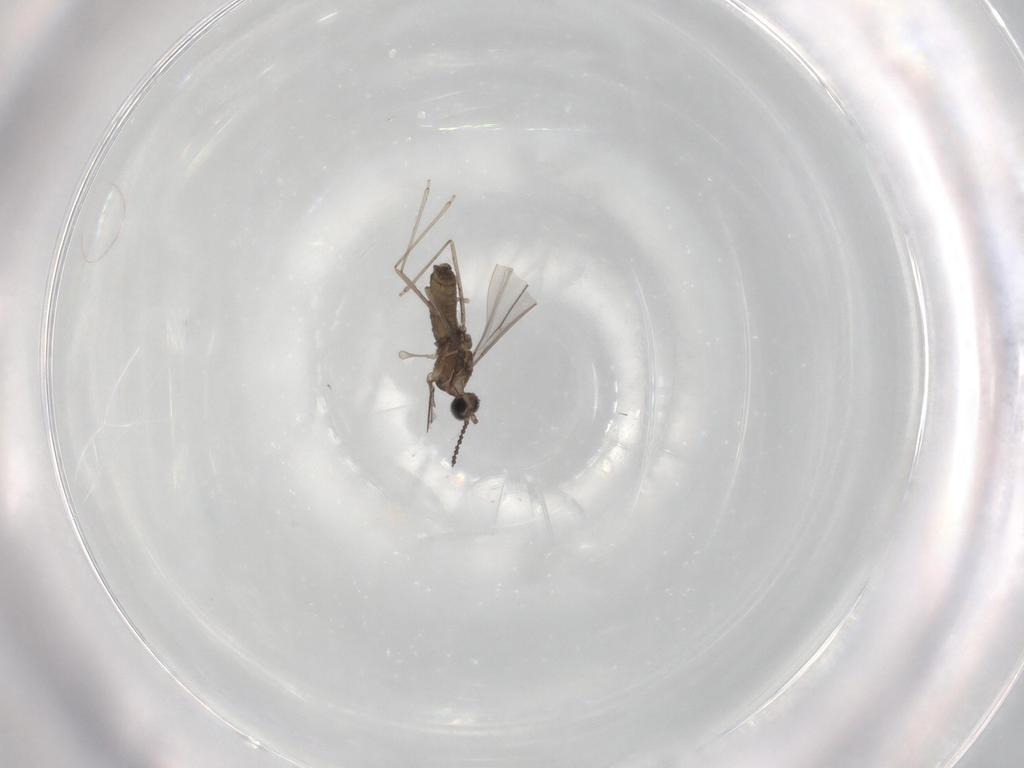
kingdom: Animalia
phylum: Arthropoda
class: Insecta
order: Diptera
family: Cecidomyiidae
